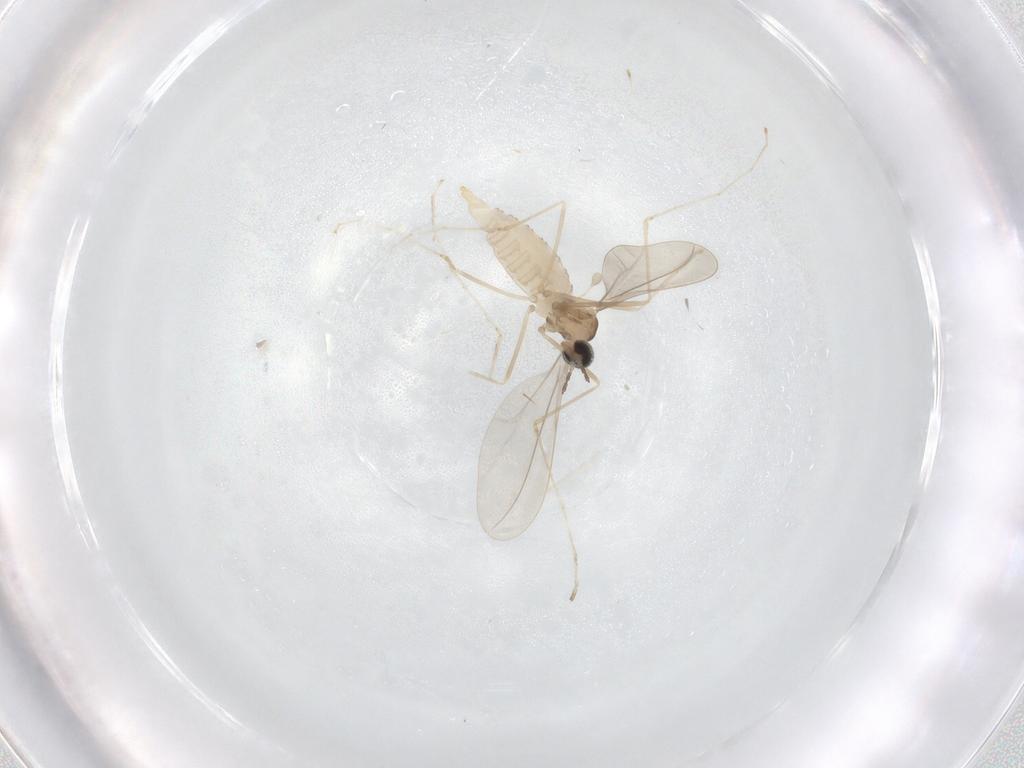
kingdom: Animalia
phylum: Arthropoda
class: Insecta
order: Diptera
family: Cecidomyiidae
